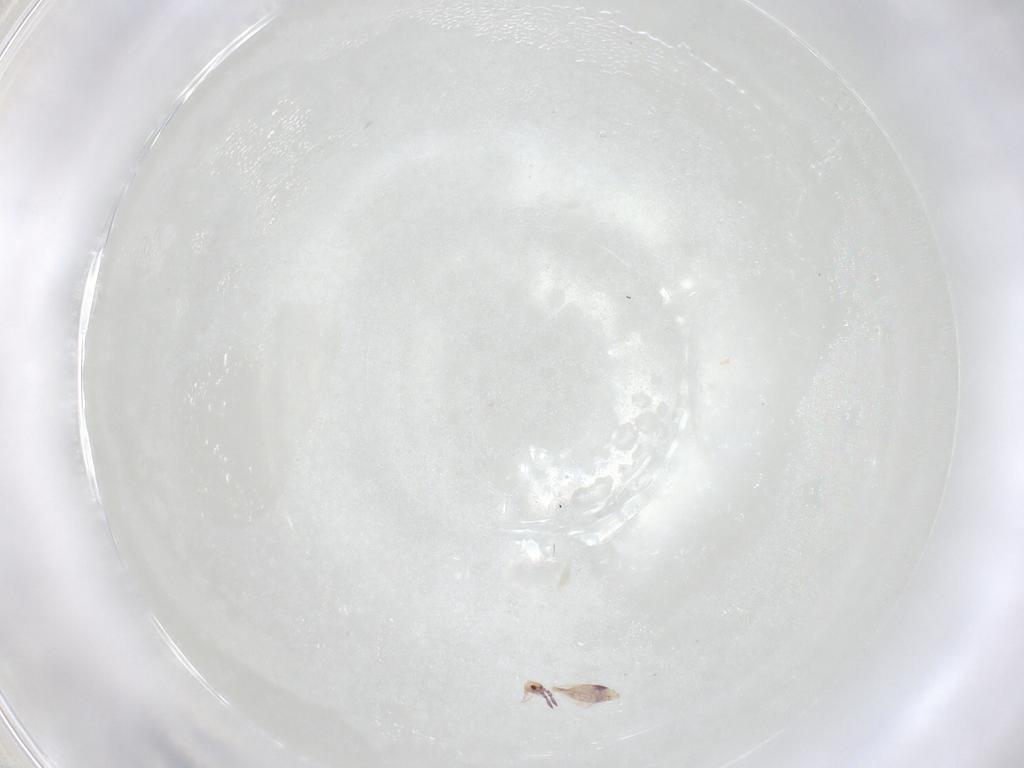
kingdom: Animalia
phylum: Arthropoda
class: Collembola
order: Entomobryomorpha
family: Entomobryidae
